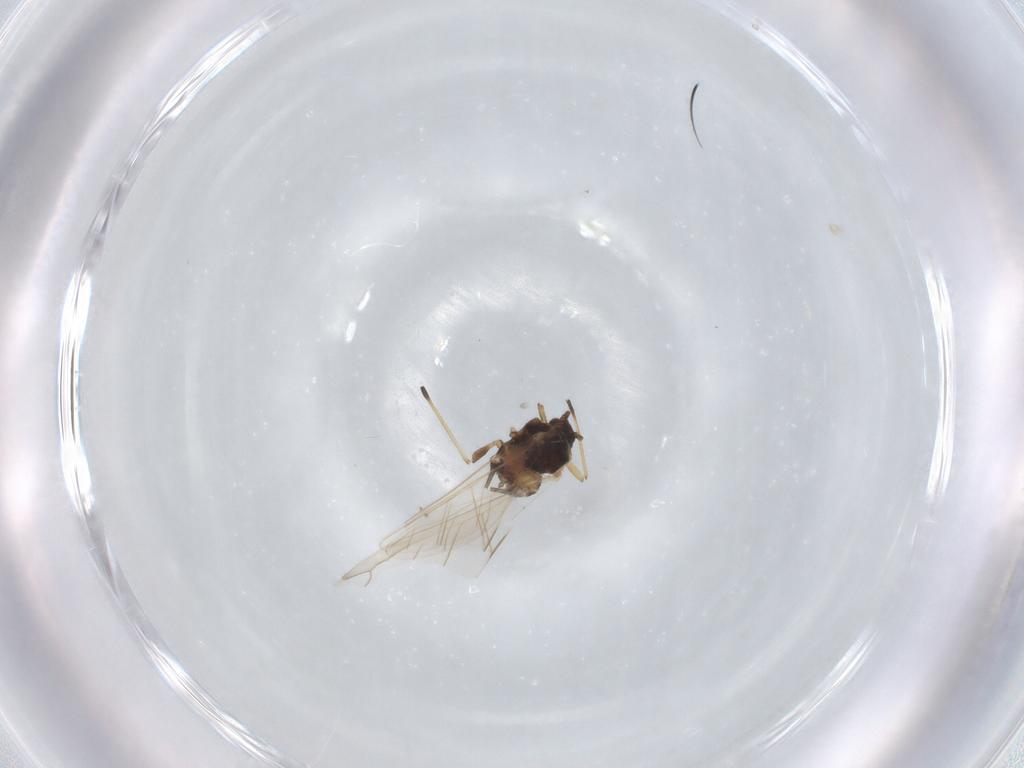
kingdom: Animalia
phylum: Arthropoda
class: Insecta
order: Hemiptera
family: Aphididae
